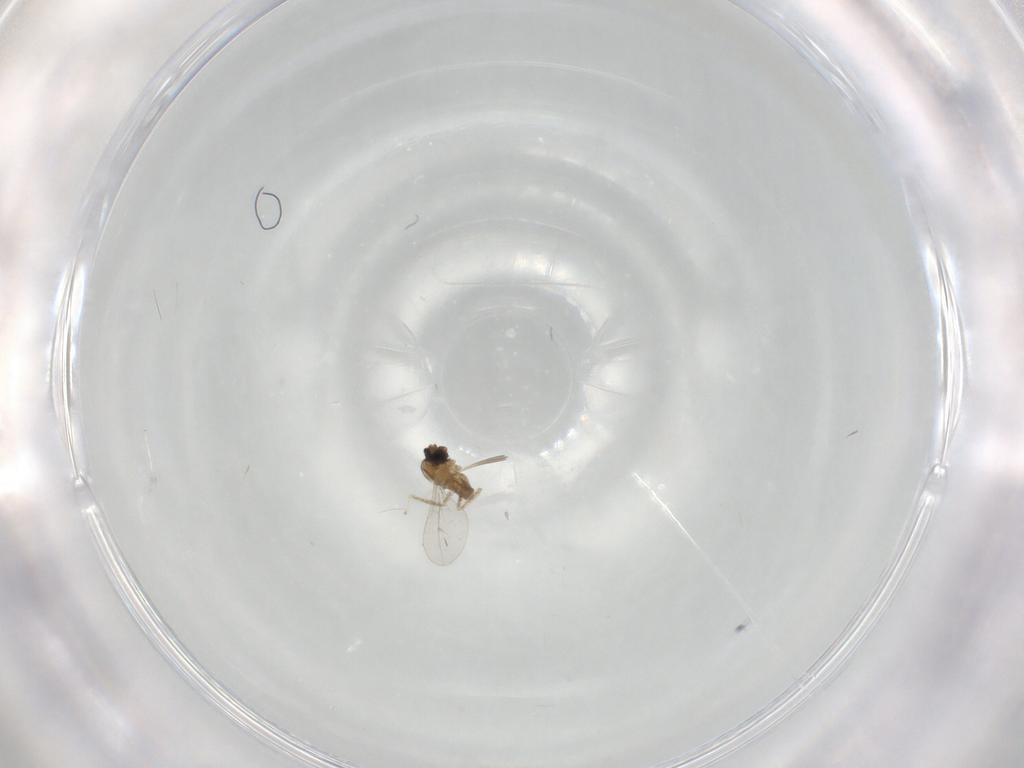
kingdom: Animalia
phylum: Arthropoda
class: Insecta
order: Diptera
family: Cecidomyiidae
